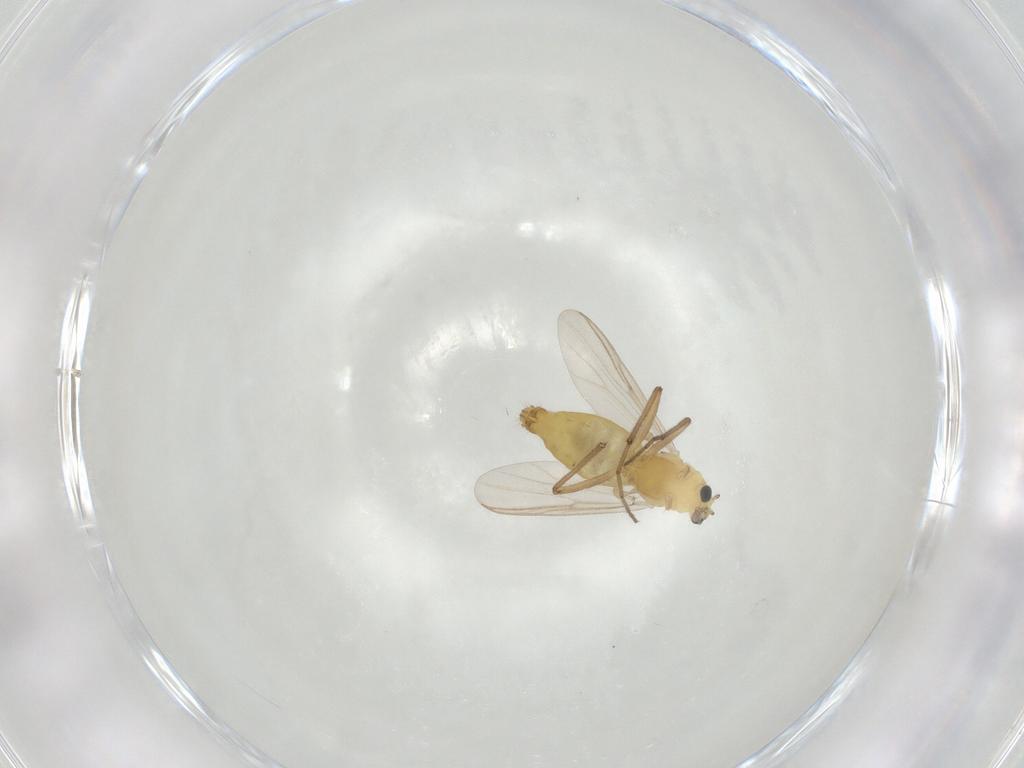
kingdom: Animalia
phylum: Arthropoda
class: Insecta
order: Diptera
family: Chironomidae
